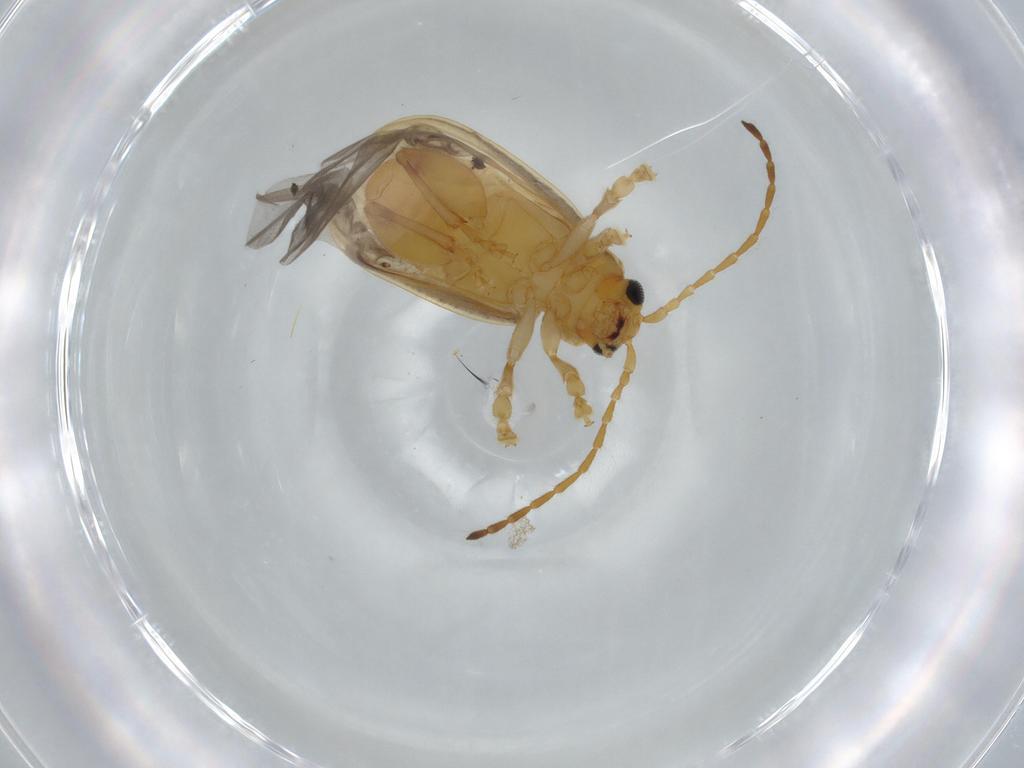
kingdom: Animalia
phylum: Arthropoda
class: Insecta
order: Coleoptera
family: Chrysomelidae
